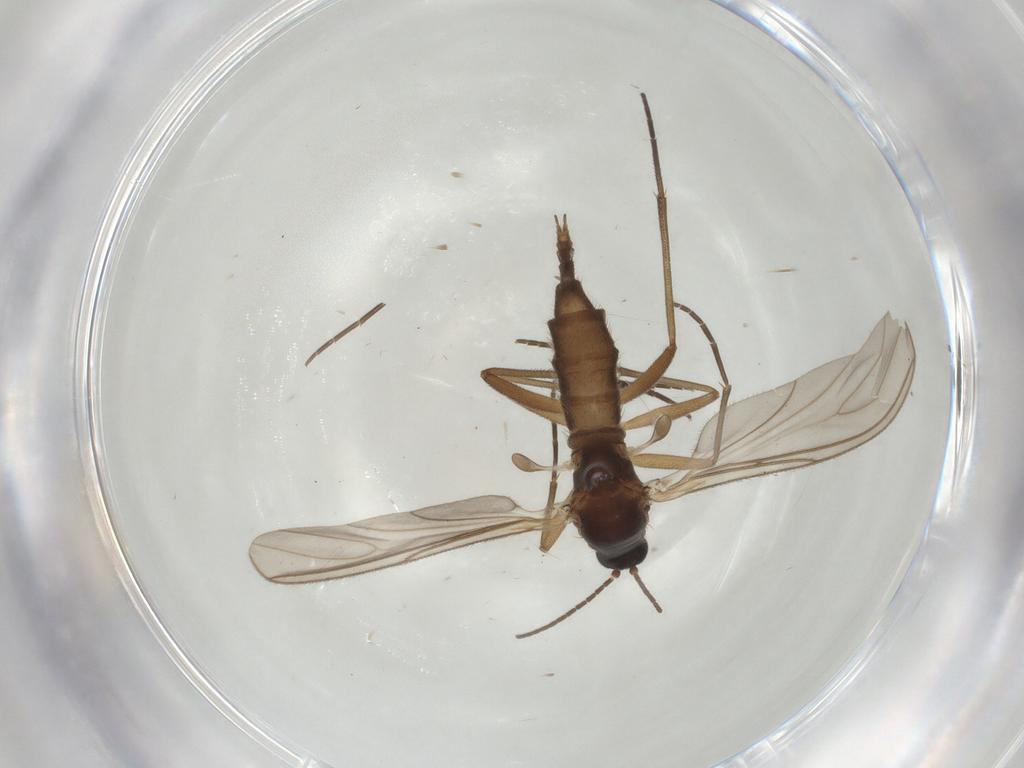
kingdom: Animalia
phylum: Arthropoda
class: Insecta
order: Diptera
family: Sciaridae
